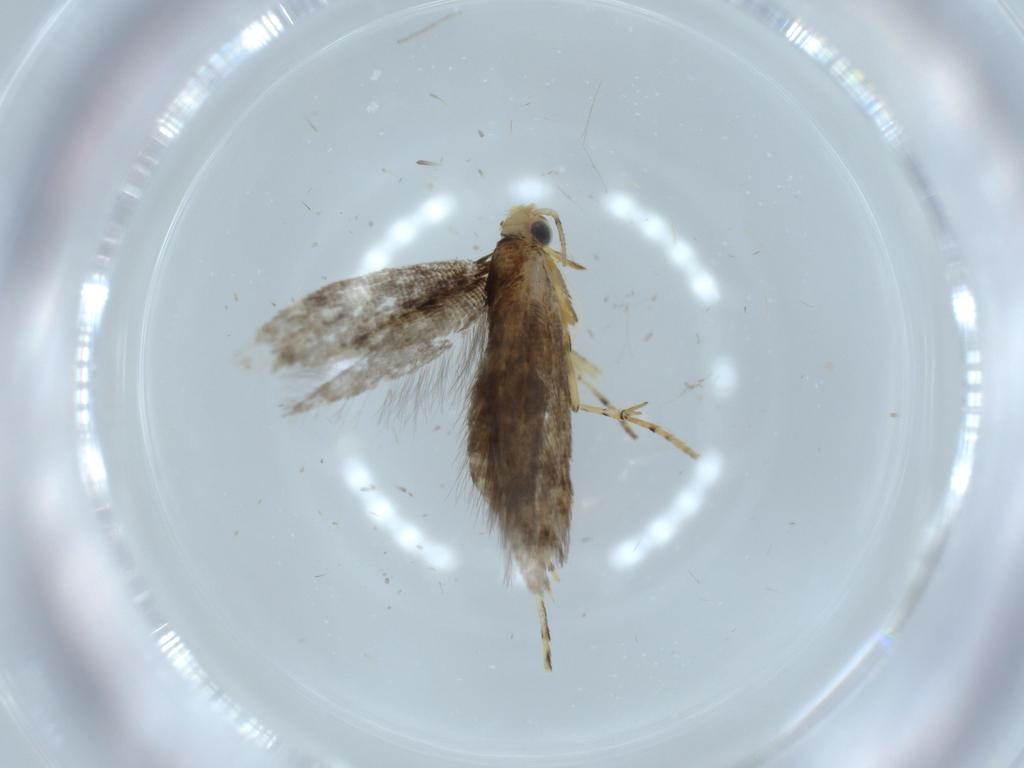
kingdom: Animalia
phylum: Arthropoda
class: Insecta
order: Lepidoptera
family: Argyresthiidae
